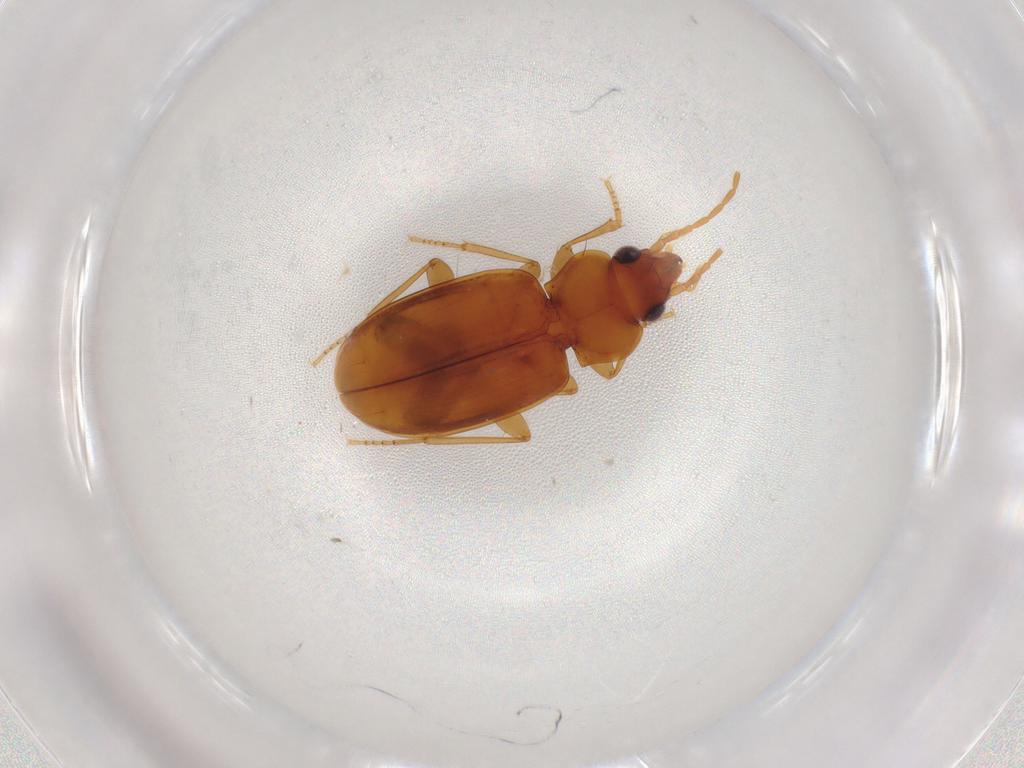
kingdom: Animalia
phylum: Arthropoda
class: Insecta
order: Coleoptera
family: Carabidae
